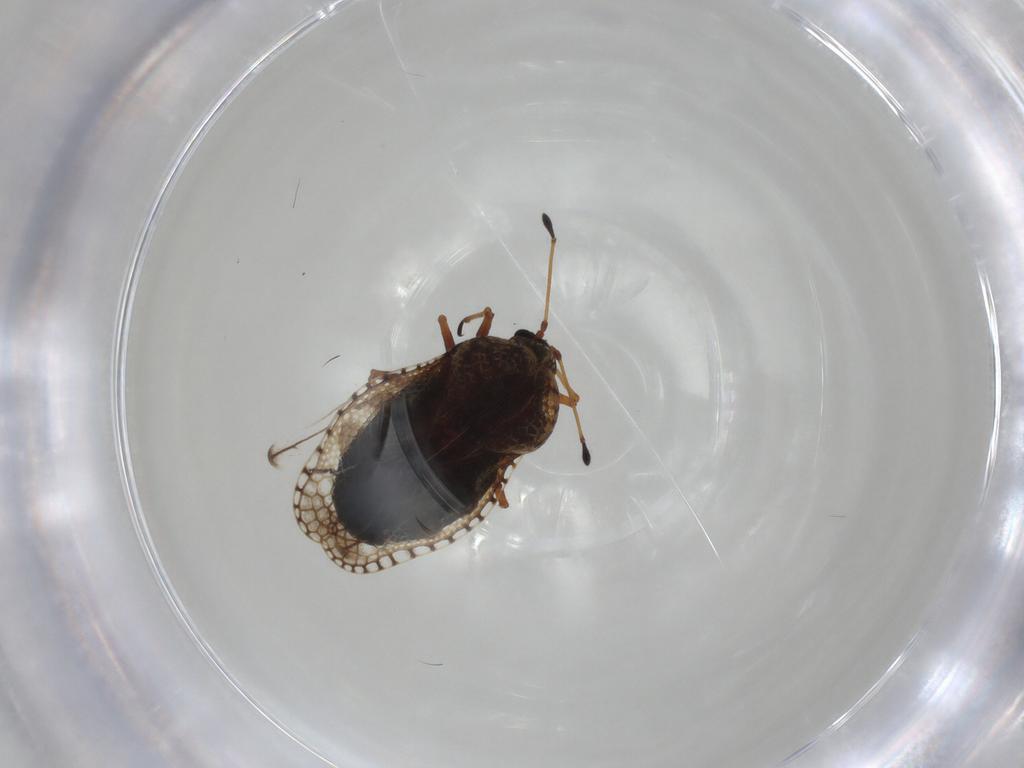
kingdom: Animalia
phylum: Arthropoda
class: Insecta
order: Hemiptera
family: Tingidae
